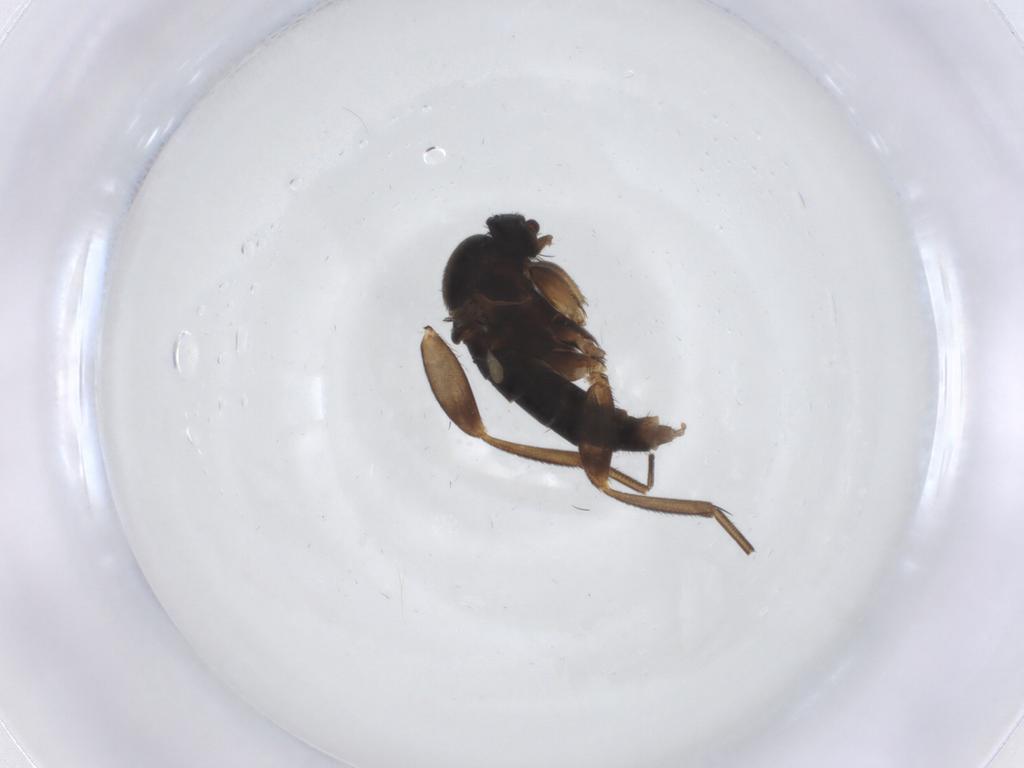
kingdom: Animalia
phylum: Arthropoda
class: Insecta
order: Diptera
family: Phoridae
